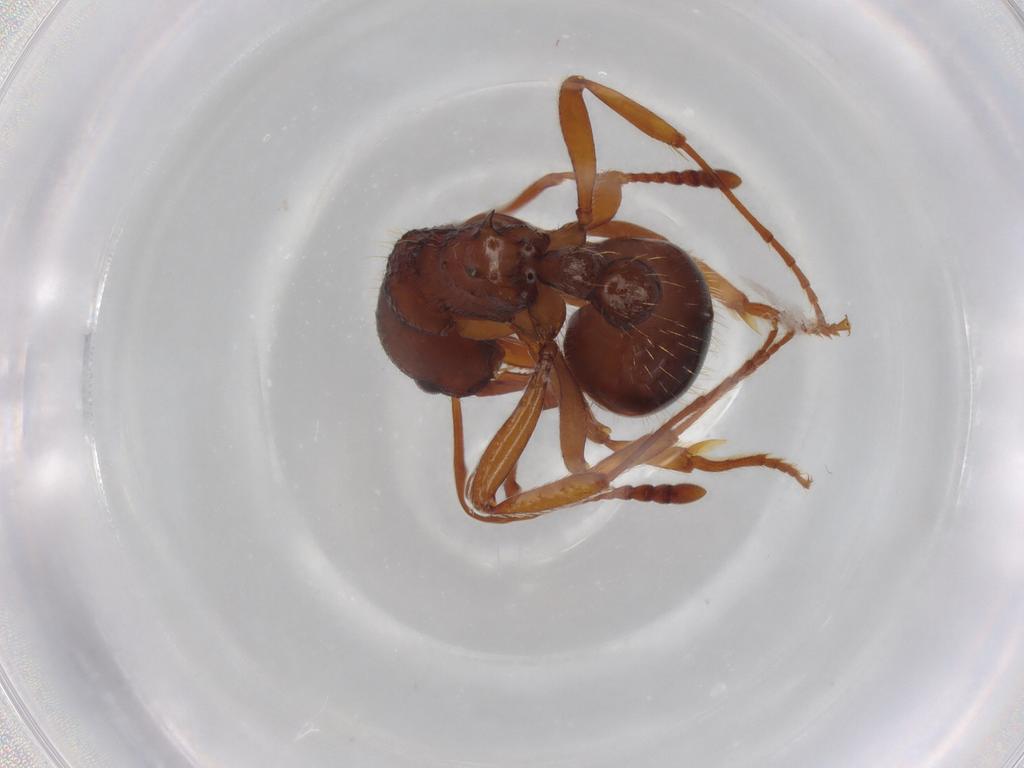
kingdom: Animalia
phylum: Arthropoda
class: Insecta
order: Hymenoptera
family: Formicidae
